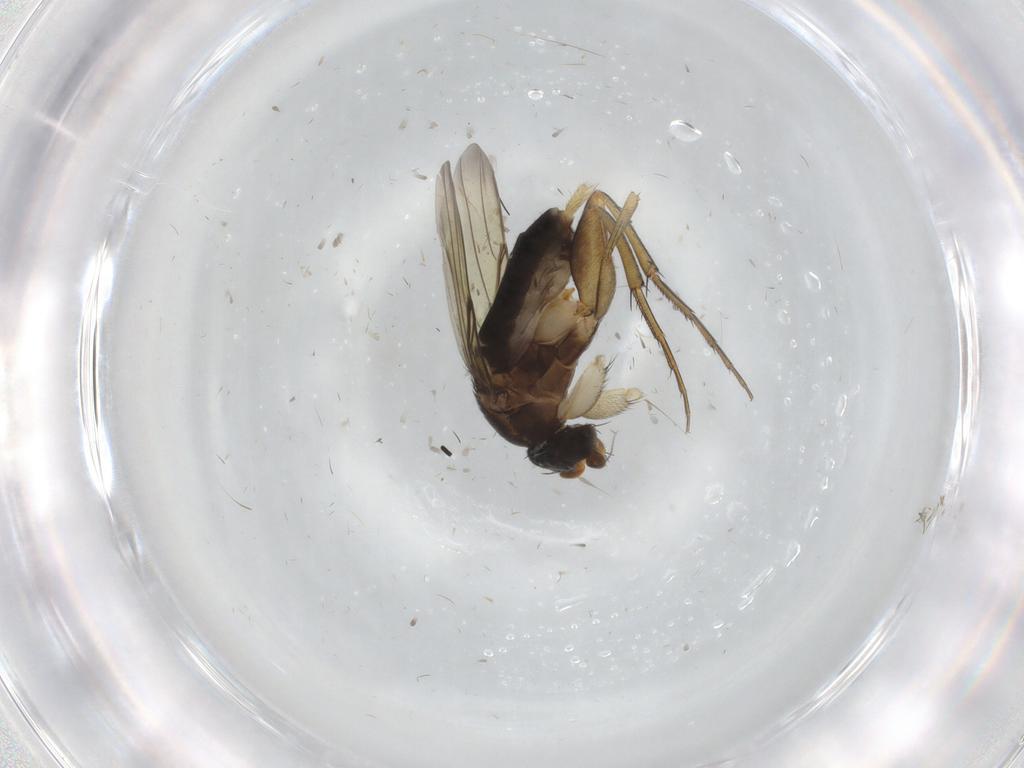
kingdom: Animalia
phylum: Arthropoda
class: Insecta
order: Diptera
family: Phoridae
